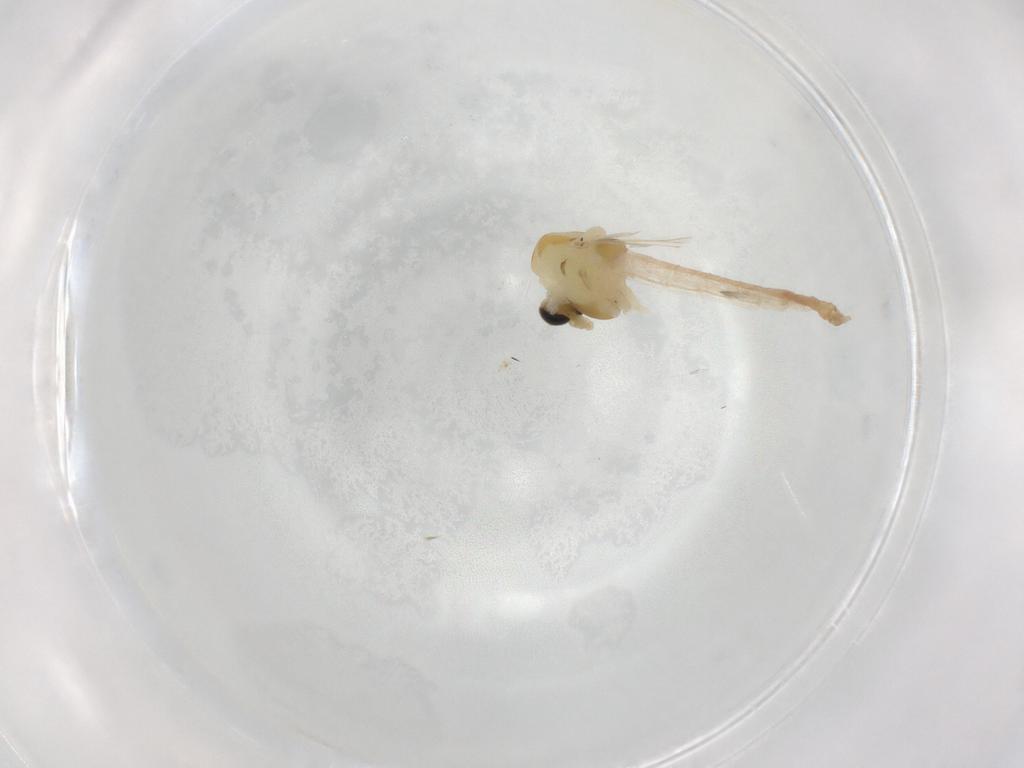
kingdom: Animalia
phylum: Arthropoda
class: Insecta
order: Diptera
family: Chironomidae
